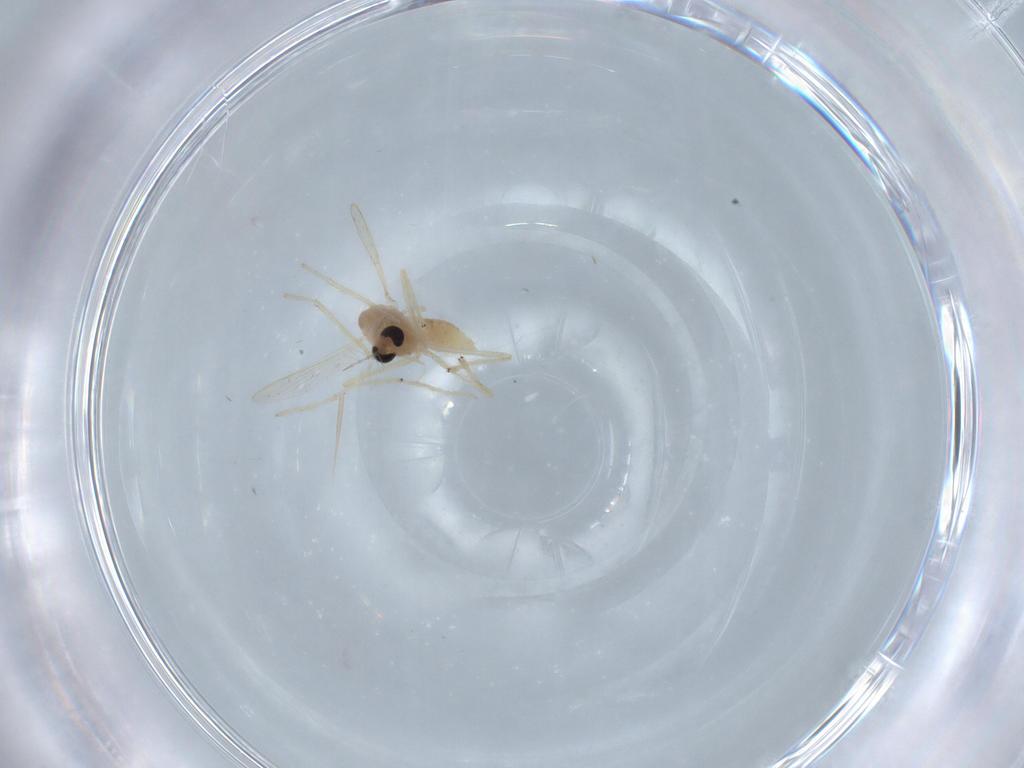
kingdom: Animalia
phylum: Arthropoda
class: Insecta
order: Diptera
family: Chironomidae
